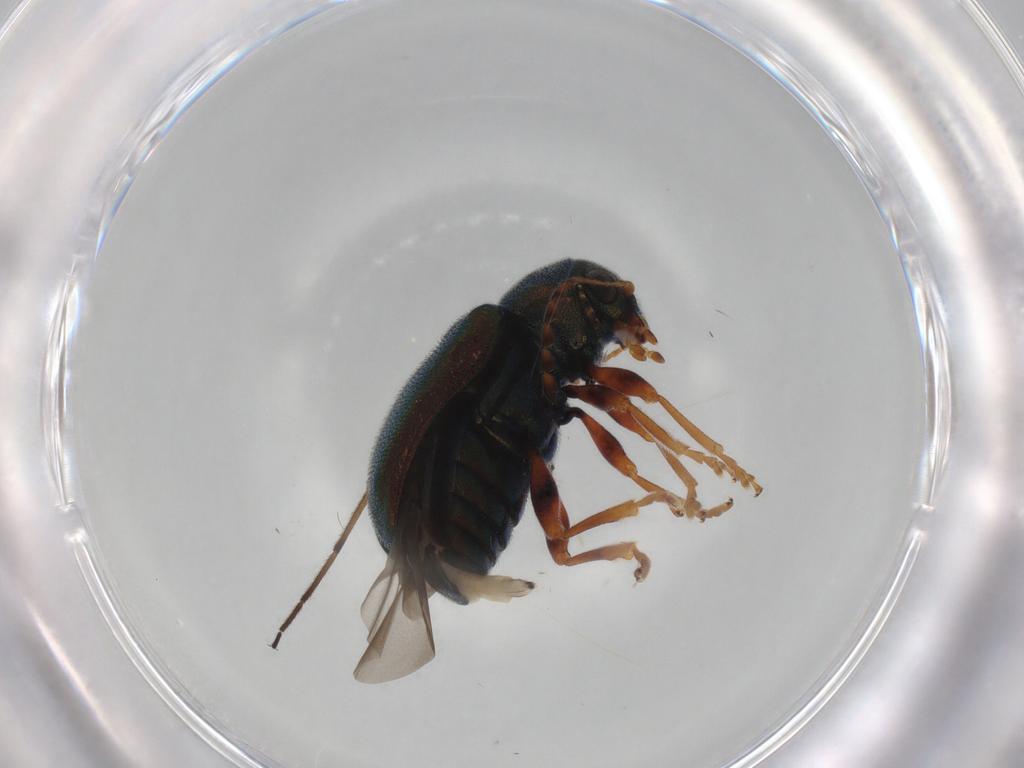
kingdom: Animalia
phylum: Arthropoda
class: Insecta
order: Coleoptera
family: Chrysomelidae
